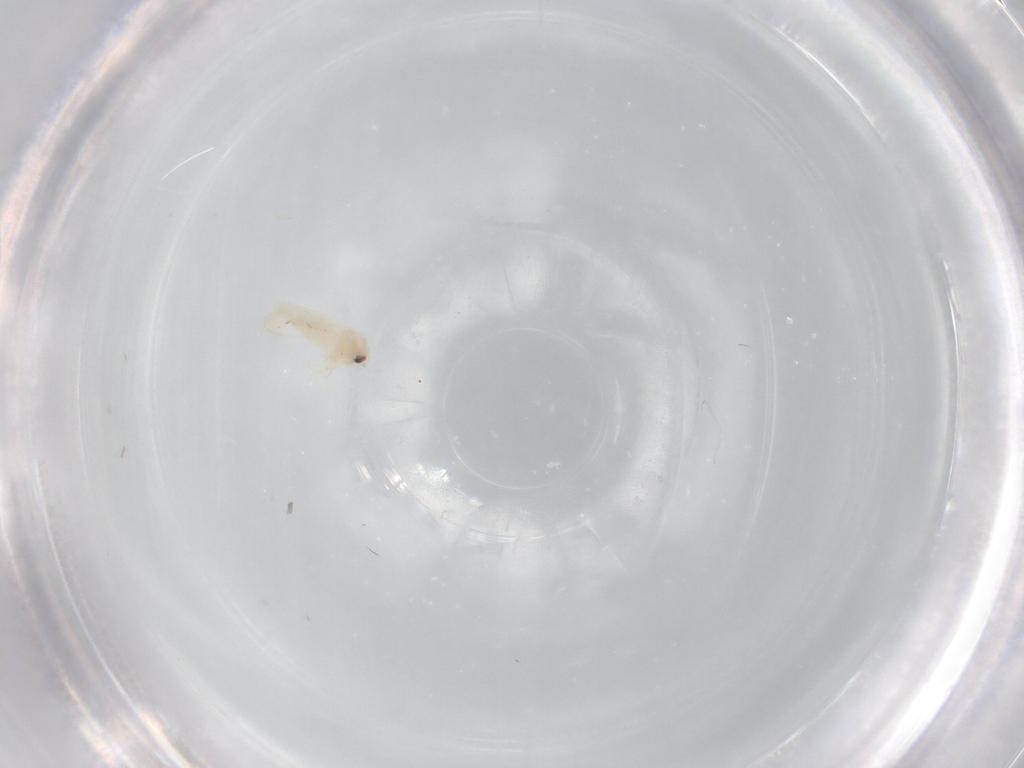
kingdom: Animalia
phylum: Arthropoda
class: Insecta
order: Hemiptera
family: Aleyrodidae
